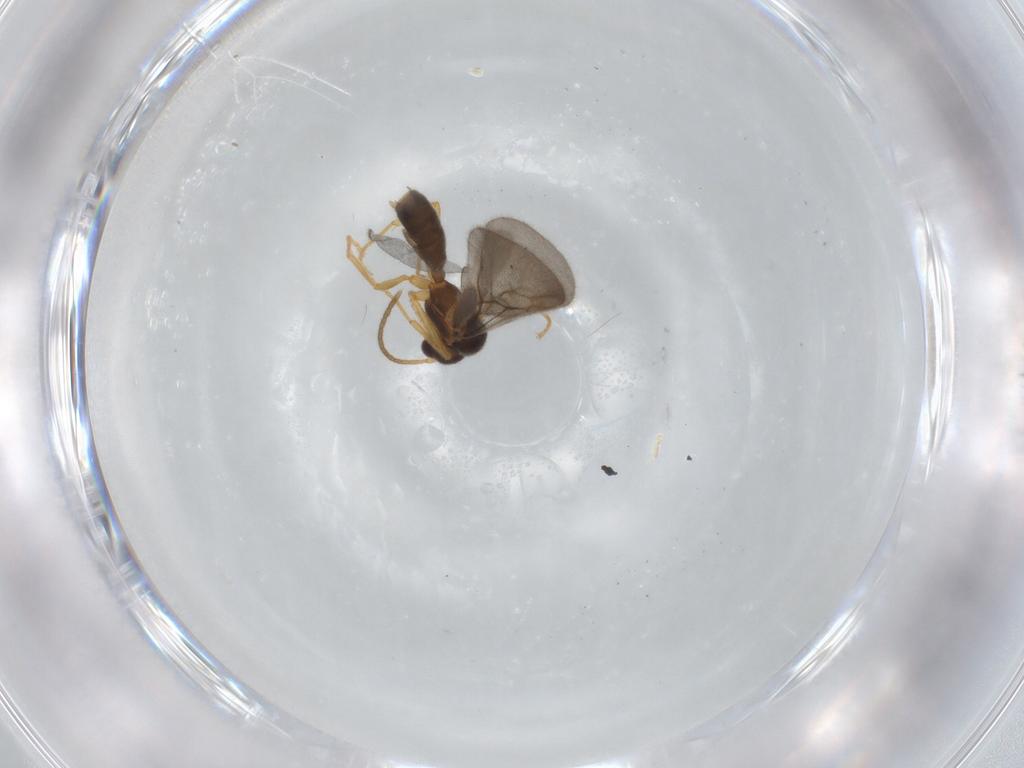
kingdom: Animalia
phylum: Arthropoda
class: Insecta
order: Hymenoptera
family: Formicidae
